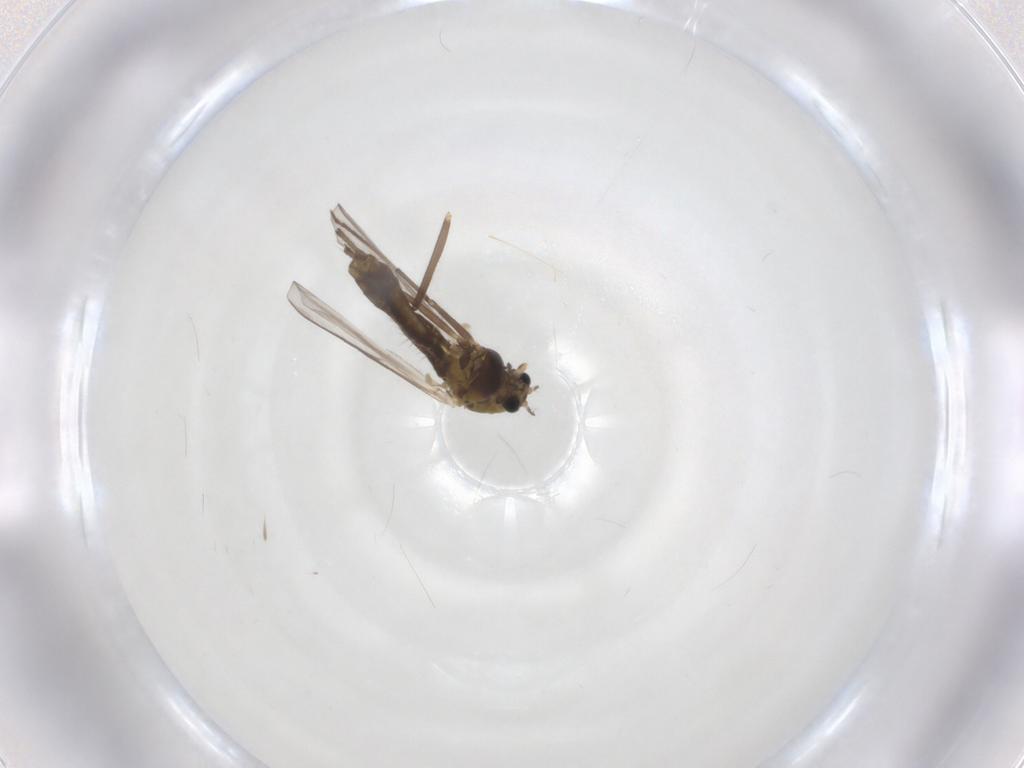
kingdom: Animalia
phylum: Arthropoda
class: Insecta
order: Diptera
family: Chironomidae
